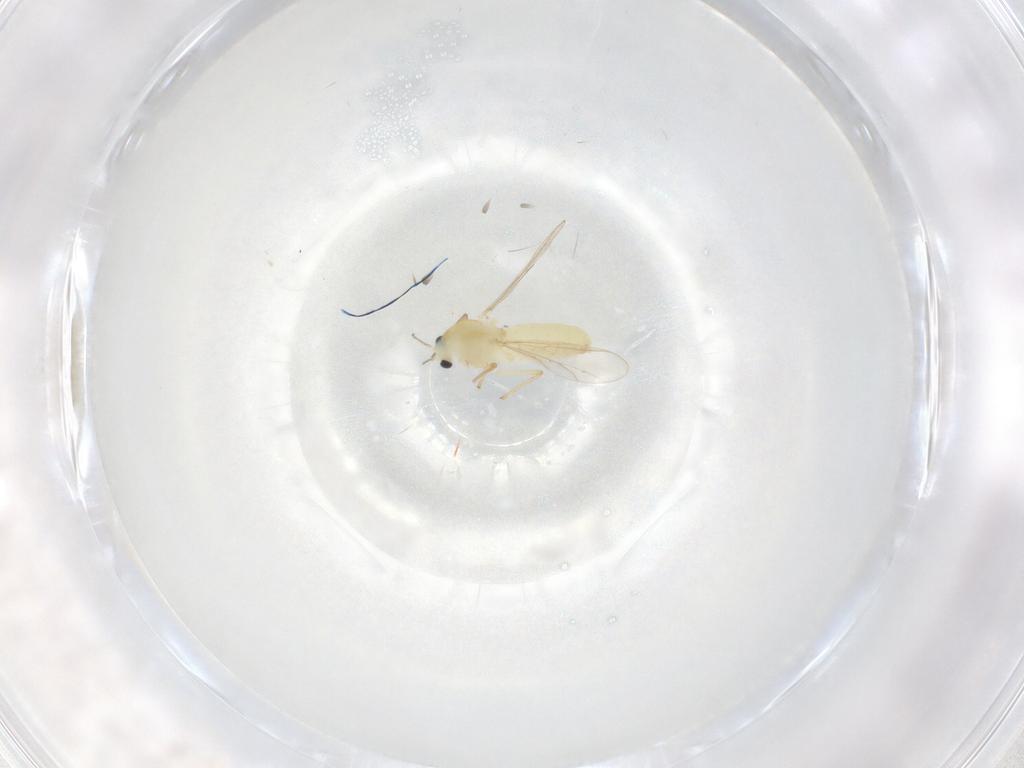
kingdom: Animalia
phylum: Arthropoda
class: Insecta
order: Diptera
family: Chironomidae
